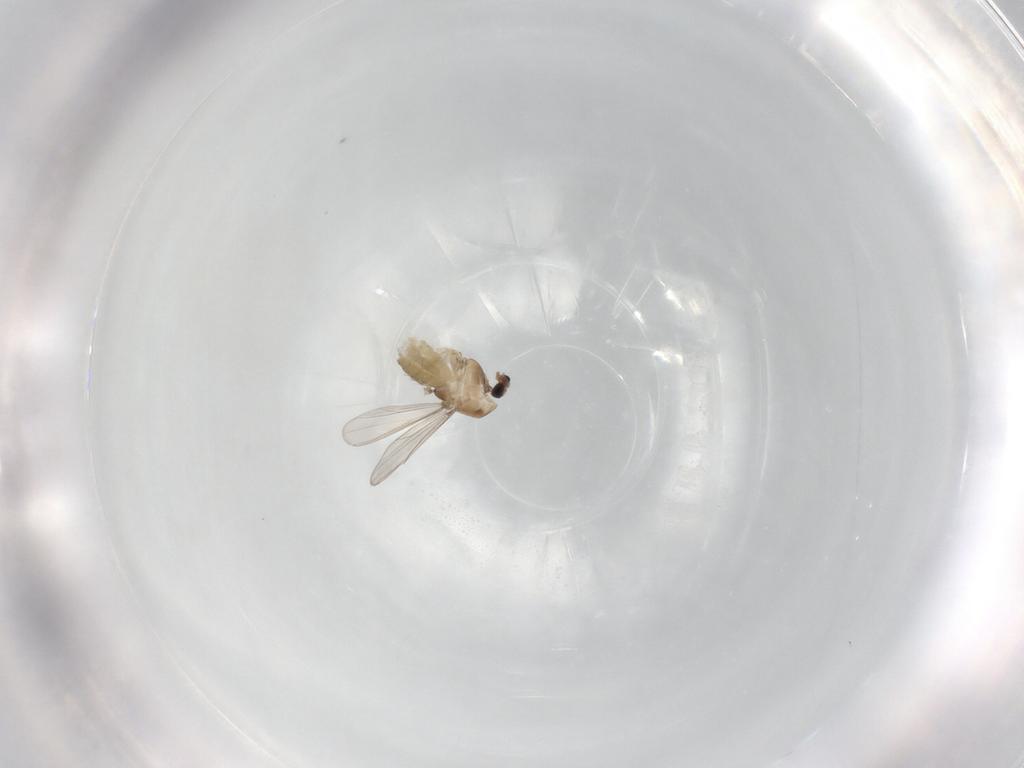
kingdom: Animalia
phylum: Arthropoda
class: Insecta
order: Diptera
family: Chironomidae
